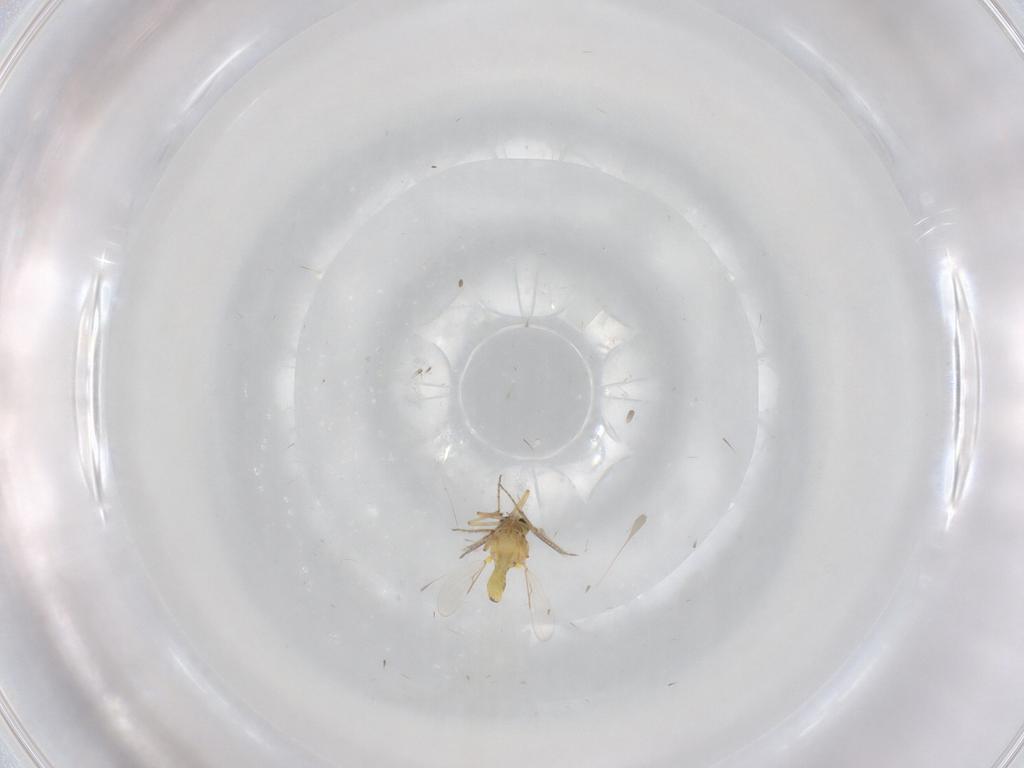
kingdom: Animalia
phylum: Arthropoda
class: Insecta
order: Diptera
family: Ceratopogonidae
